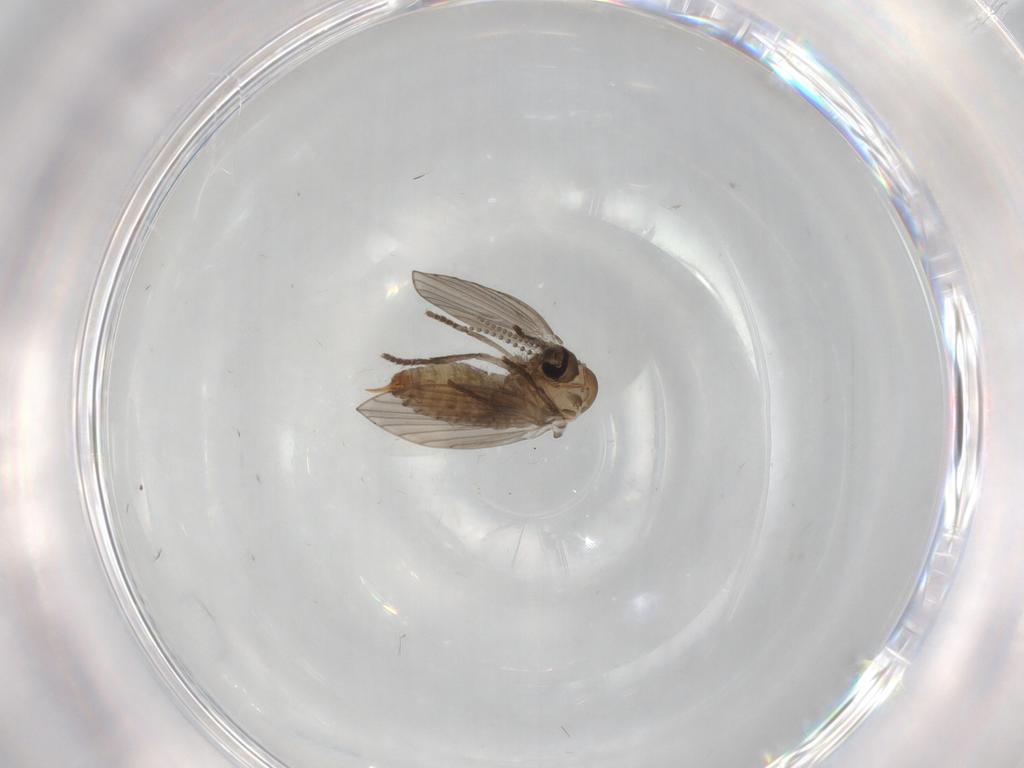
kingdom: Animalia
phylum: Arthropoda
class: Insecta
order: Diptera
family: Psychodidae
